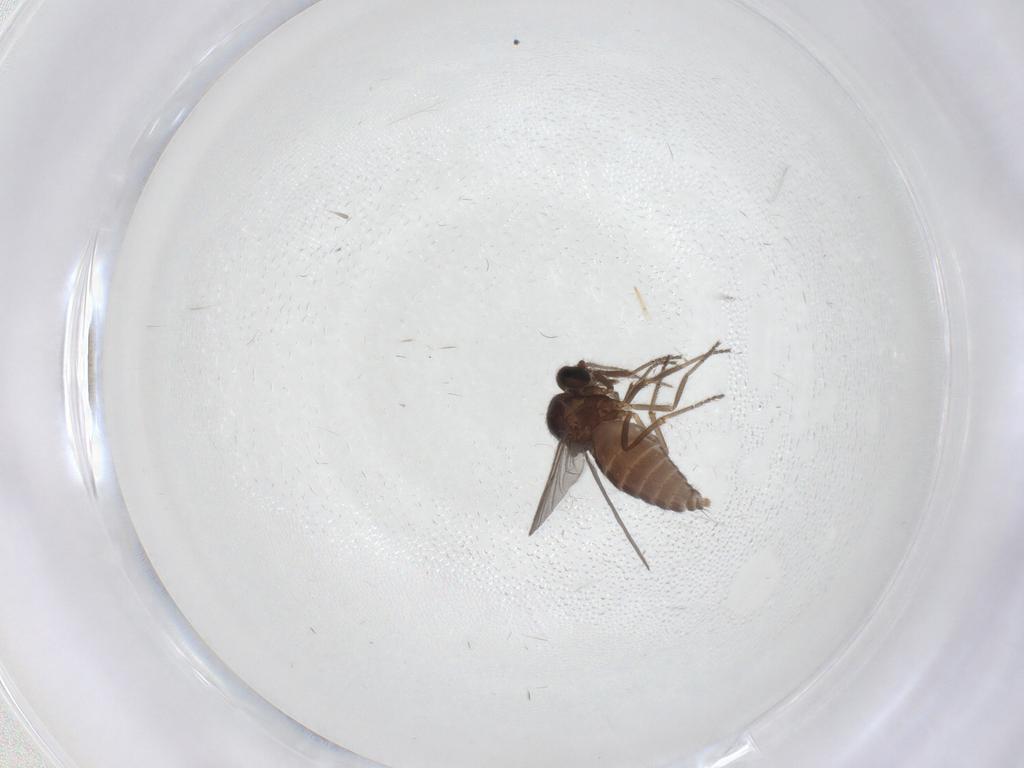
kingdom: Animalia
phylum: Arthropoda
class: Insecta
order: Diptera
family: Ceratopogonidae
